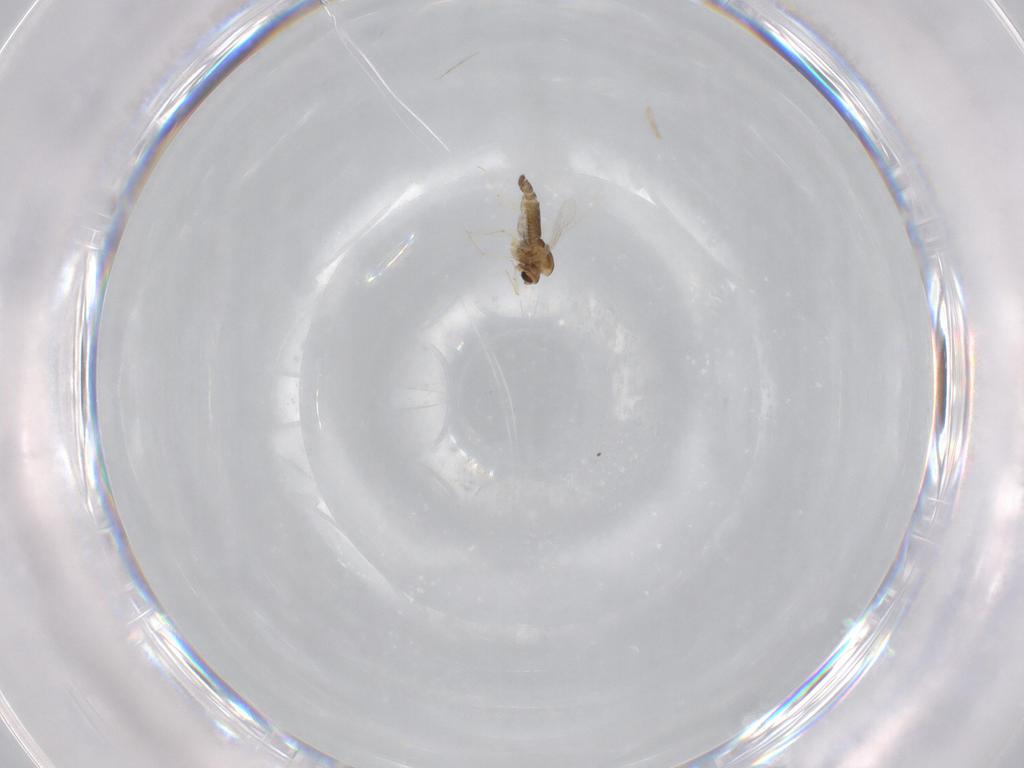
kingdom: Animalia
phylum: Arthropoda
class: Insecta
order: Diptera
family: Chironomidae
